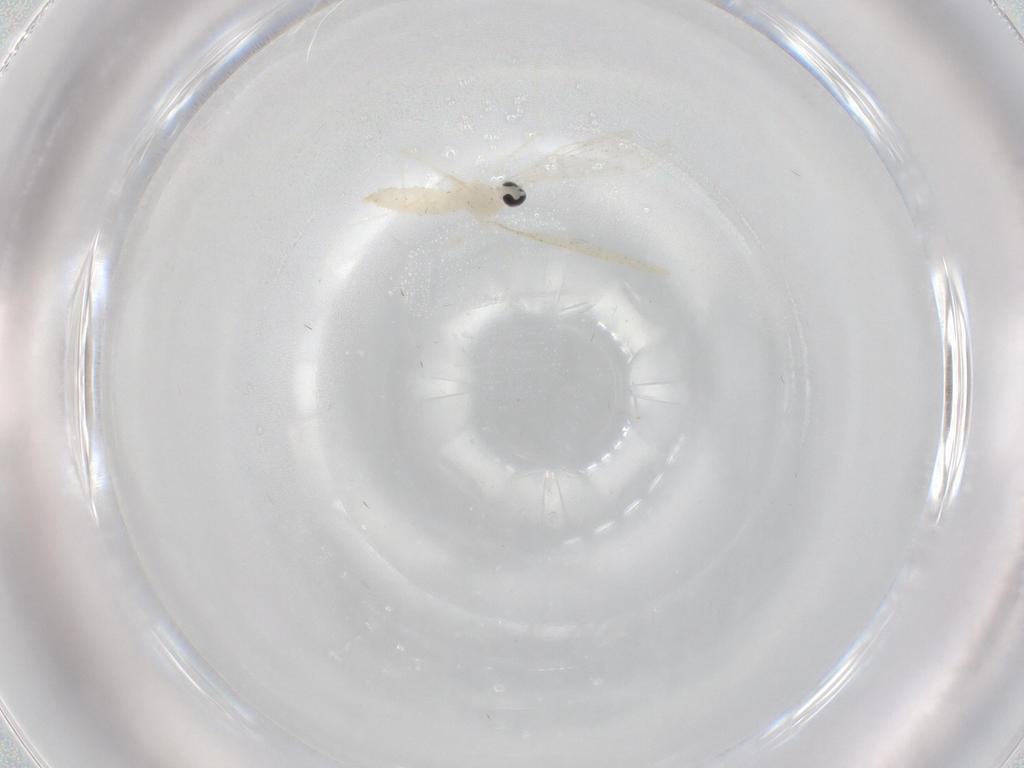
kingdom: Animalia
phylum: Arthropoda
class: Insecta
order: Diptera
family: Cecidomyiidae
